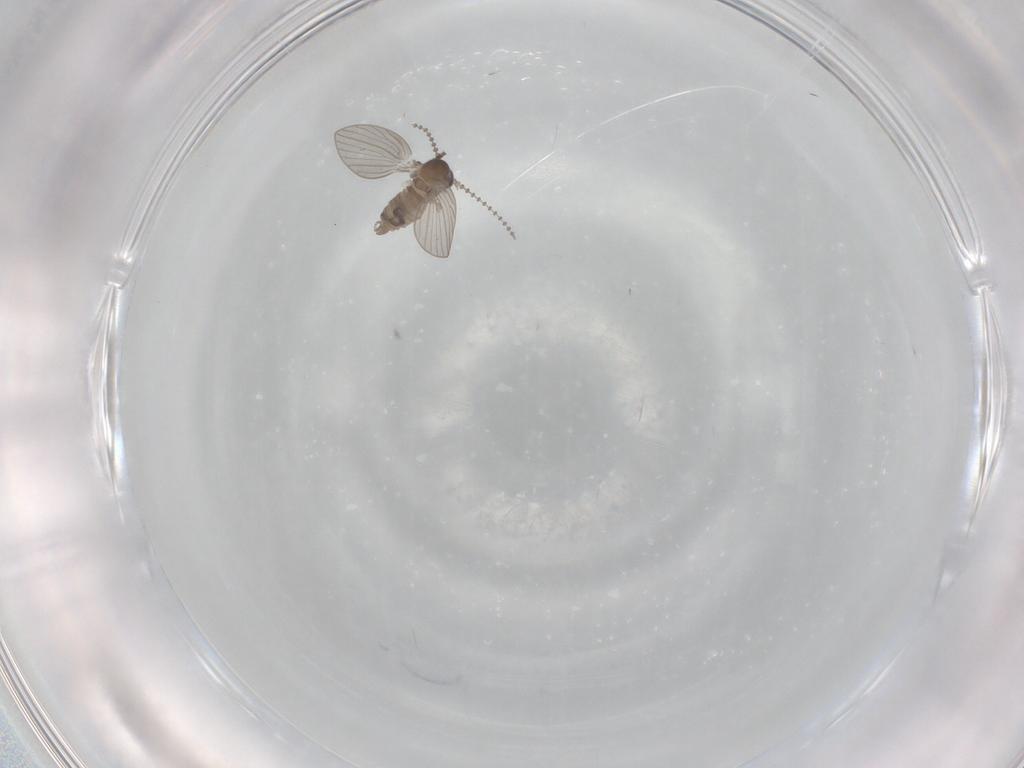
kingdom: Animalia
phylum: Arthropoda
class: Insecta
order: Diptera
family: Psychodidae
